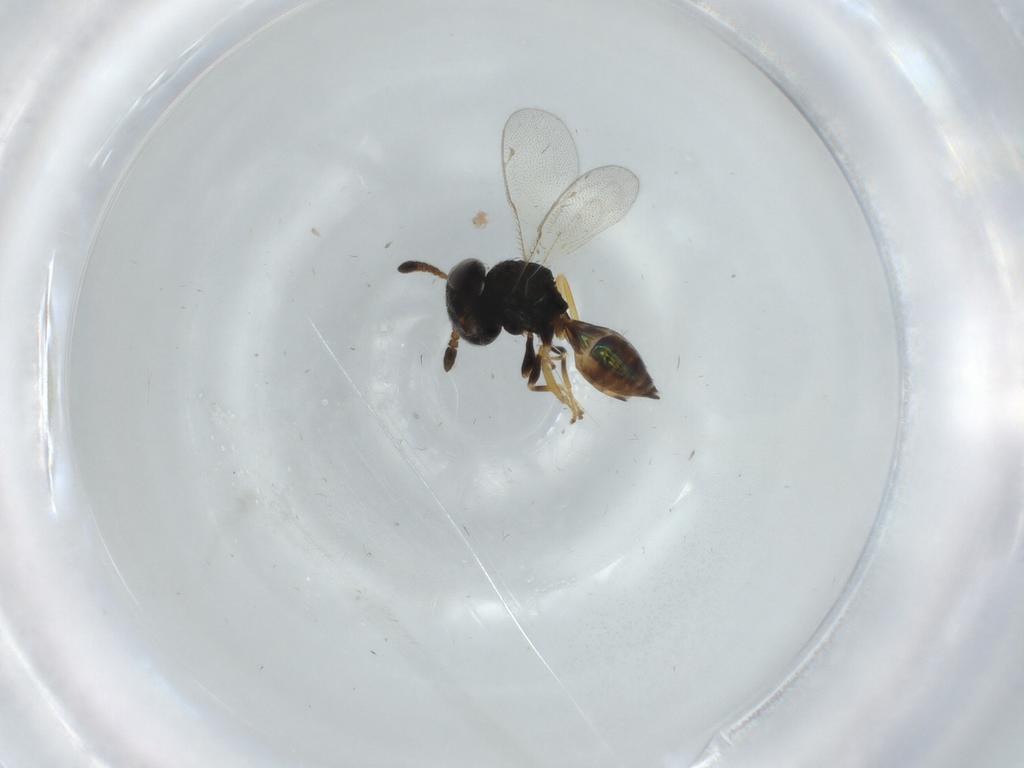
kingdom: Animalia
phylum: Arthropoda
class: Insecta
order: Hymenoptera
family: Pteromalidae
